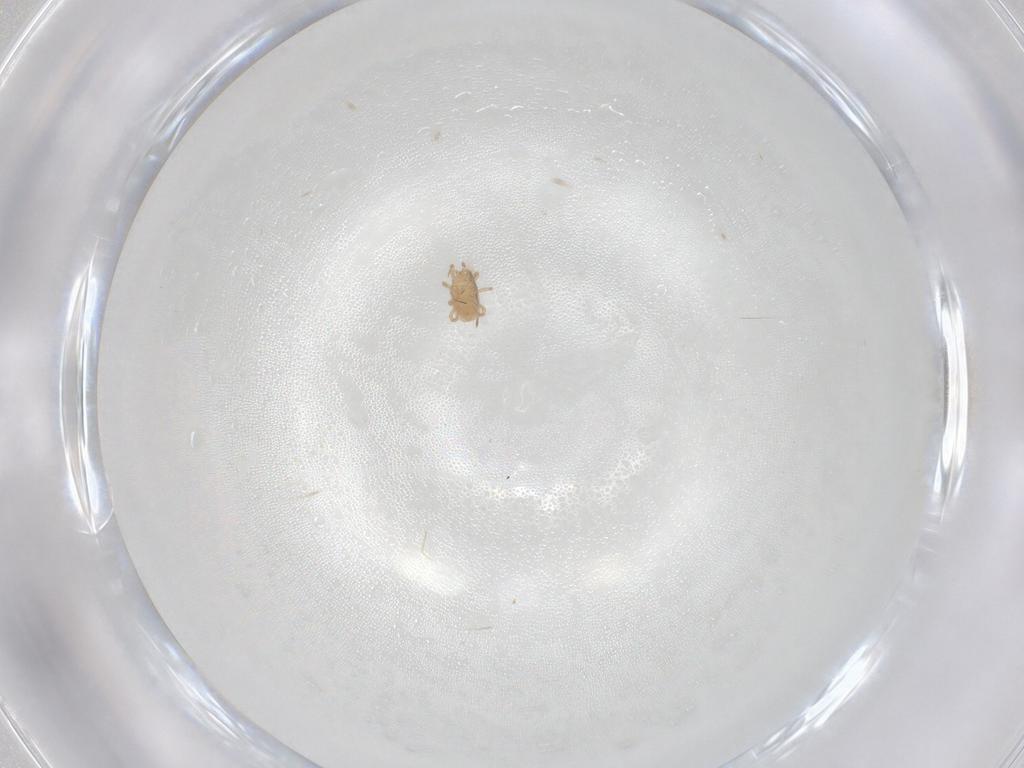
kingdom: Animalia
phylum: Arthropoda
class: Arachnida
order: Mesostigmata
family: Blattisociidae
